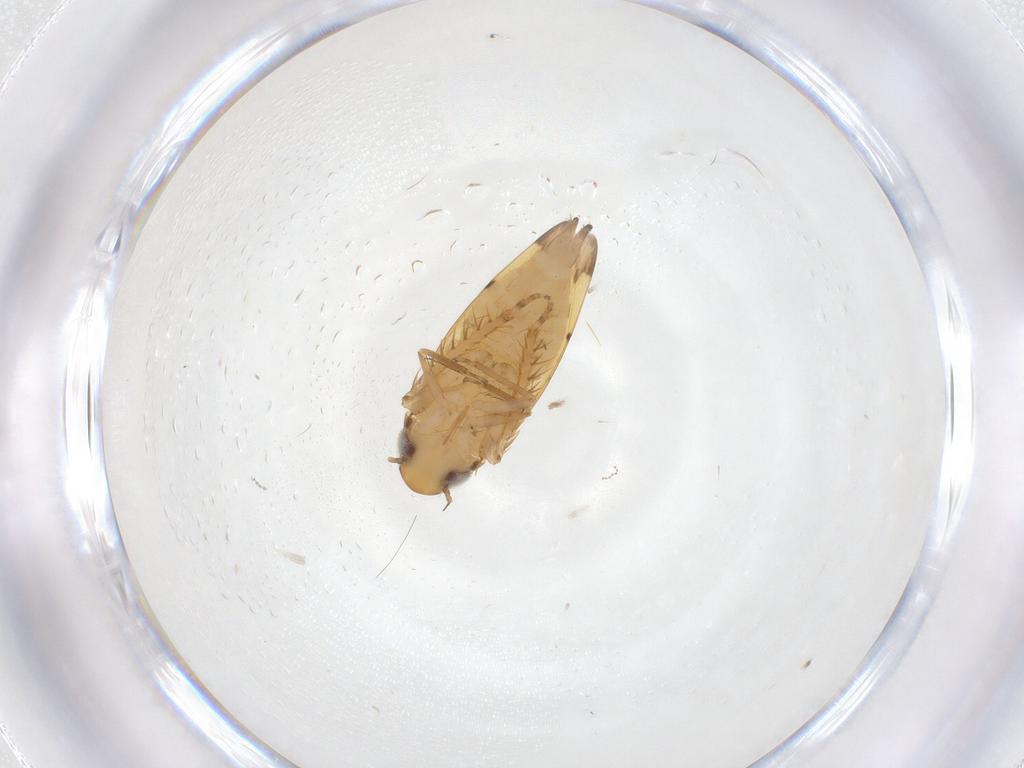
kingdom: Animalia
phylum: Arthropoda
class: Insecta
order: Hemiptera
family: Cicadellidae
